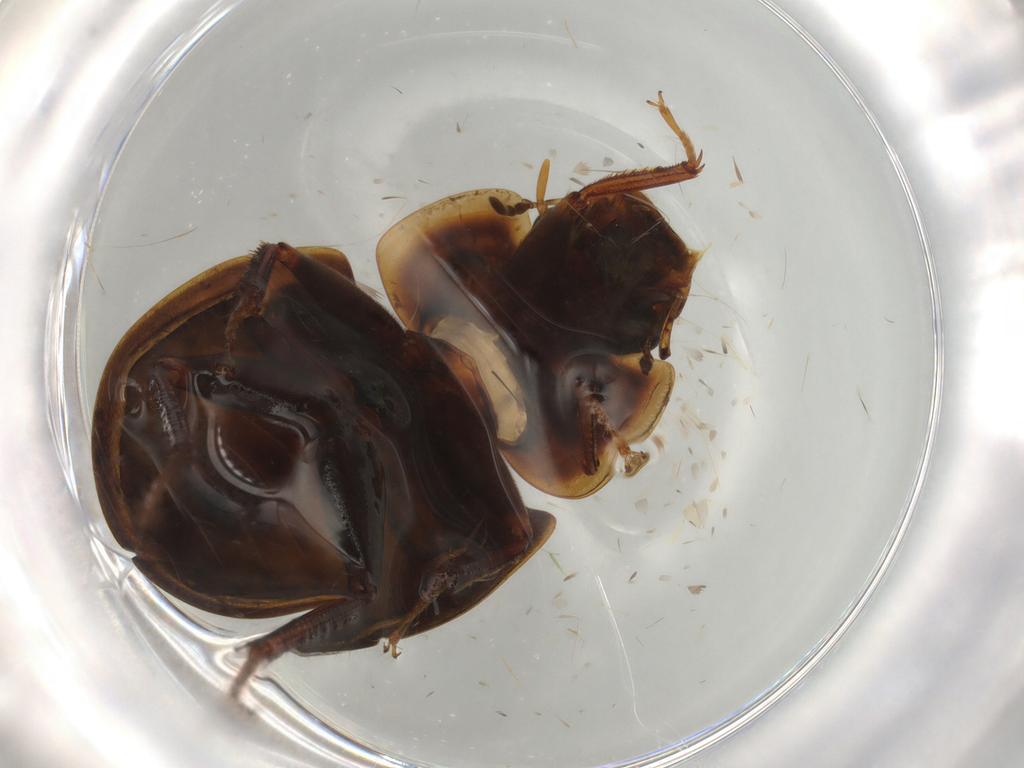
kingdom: Animalia
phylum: Arthropoda
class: Insecta
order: Coleoptera
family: Hydrophilidae
